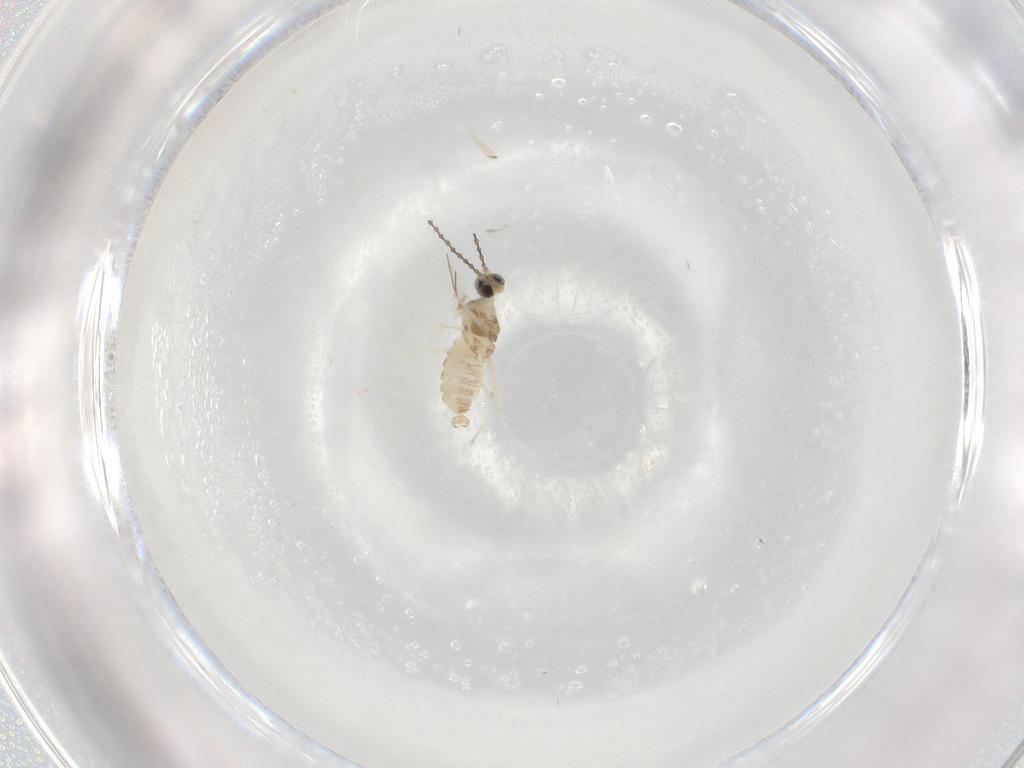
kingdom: Animalia
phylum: Arthropoda
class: Insecta
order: Diptera
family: Cecidomyiidae
